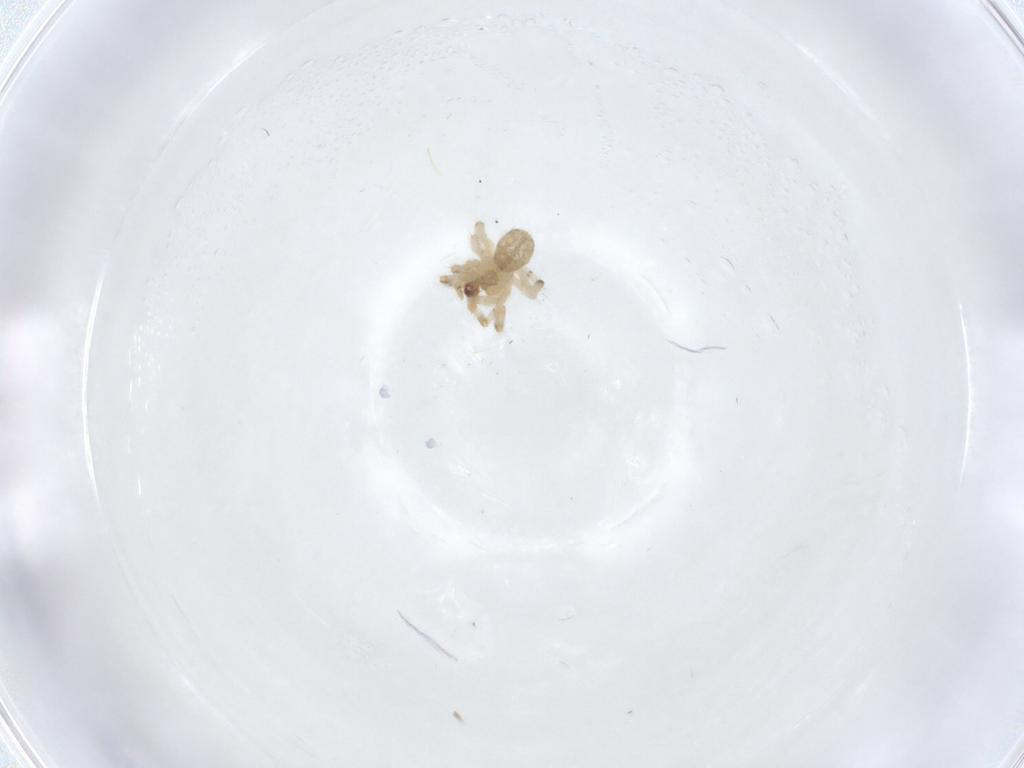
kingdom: Animalia
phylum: Arthropoda
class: Arachnida
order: Araneae
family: Theridiidae
